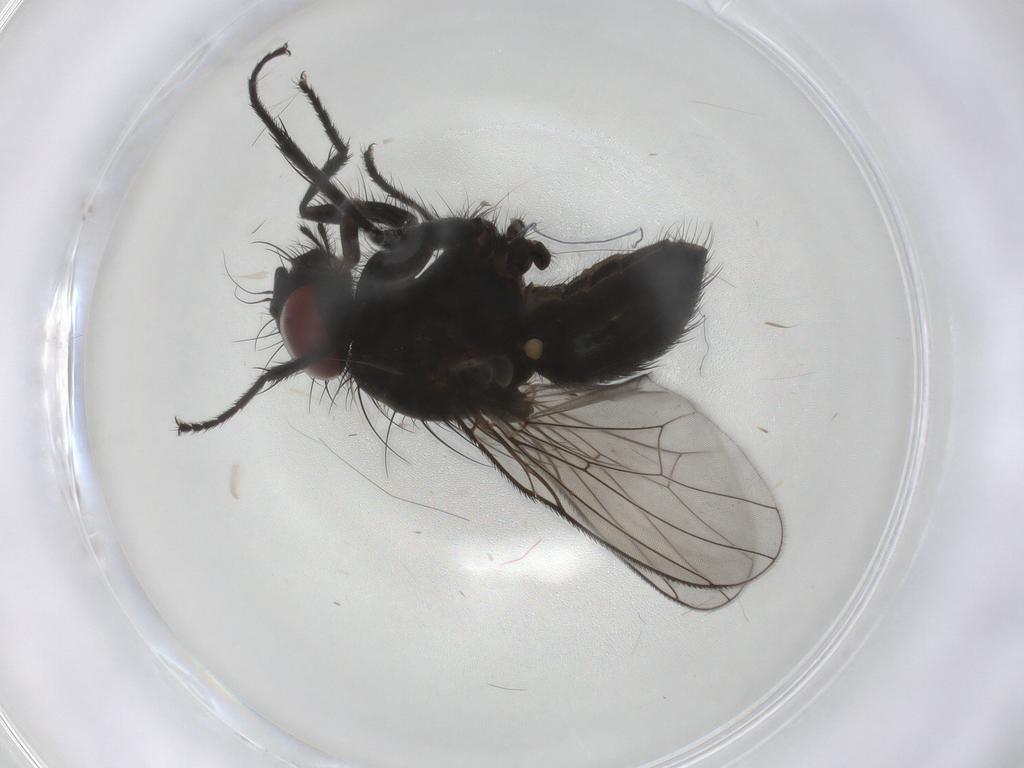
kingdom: Animalia
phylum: Arthropoda
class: Insecta
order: Diptera
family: Muscidae
